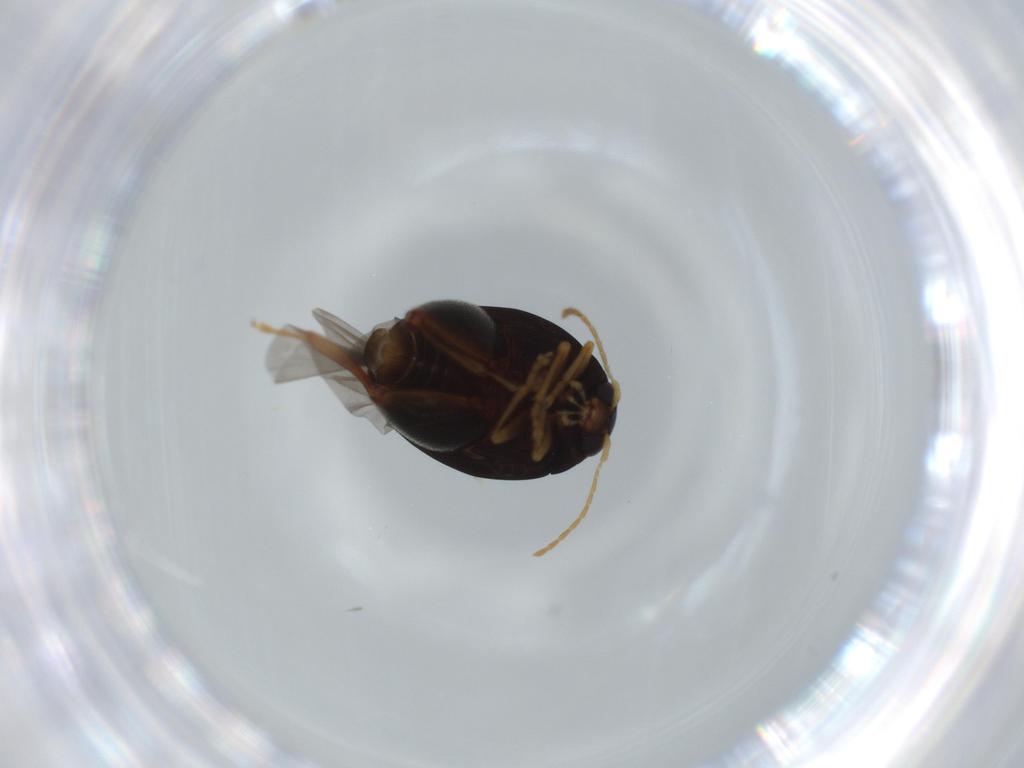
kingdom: Animalia
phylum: Arthropoda
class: Insecta
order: Coleoptera
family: Chrysomelidae
